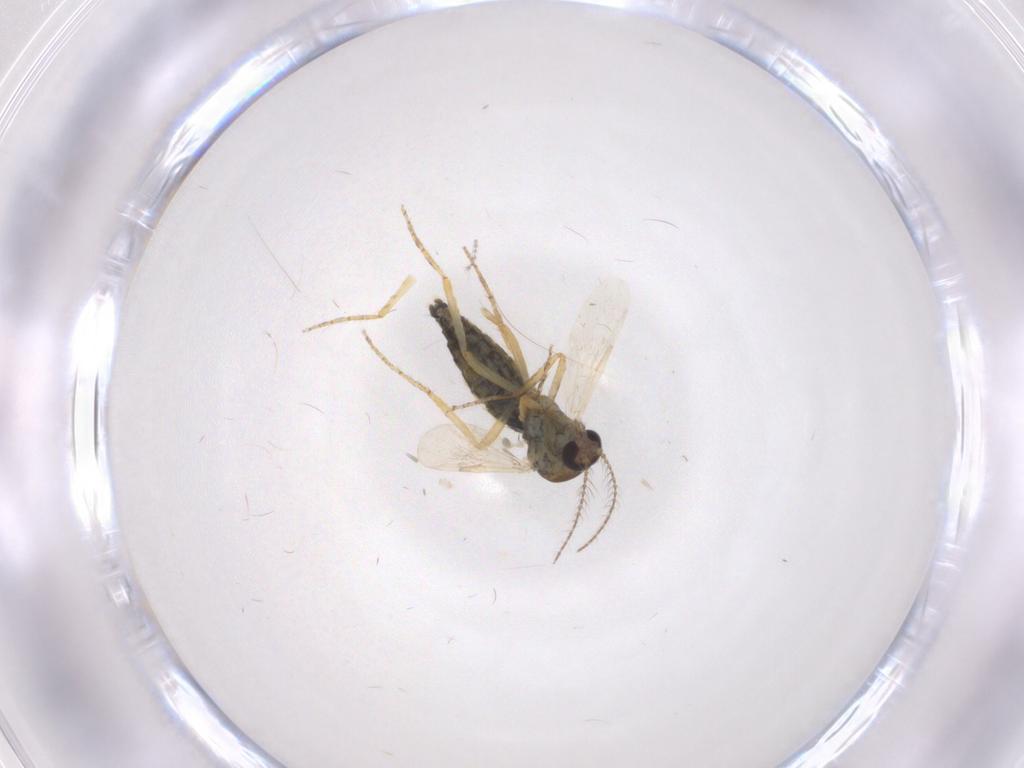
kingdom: Animalia
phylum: Arthropoda
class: Insecta
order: Diptera
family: Ceratopogonidae
